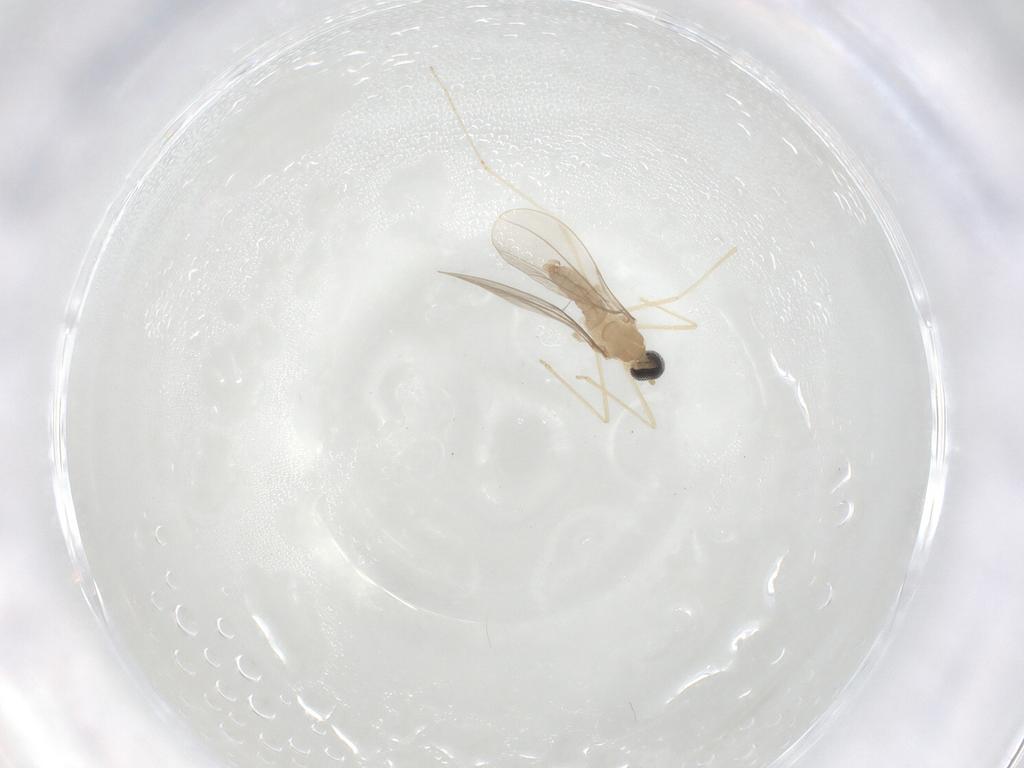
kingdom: Animalia
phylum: Arthropoda
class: Insecta
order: Diptera
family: Cecidomyiidae
